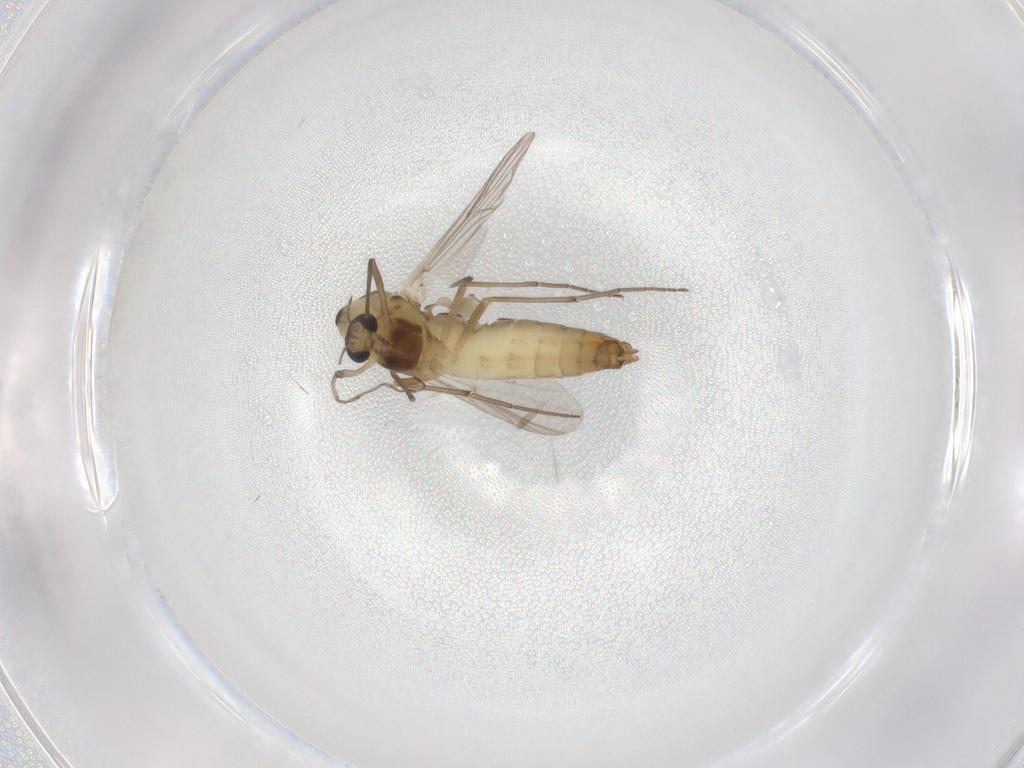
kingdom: Animalia
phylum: Arthropoda
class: Insecta
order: Diptera
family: Chironomidae
